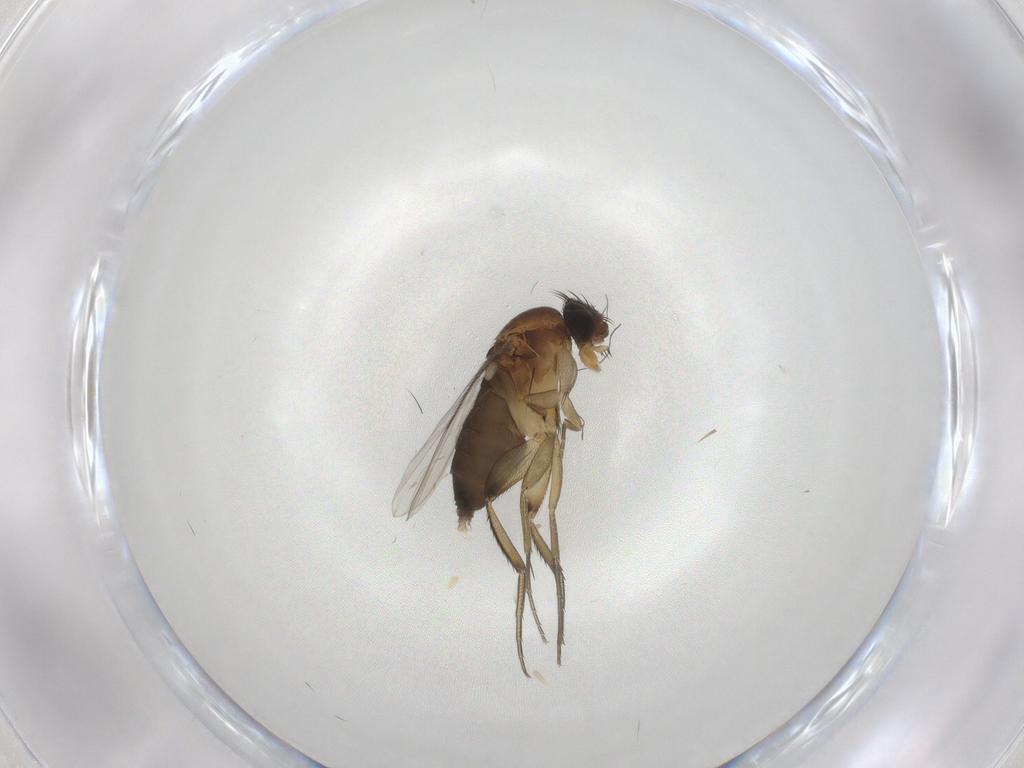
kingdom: Animalia
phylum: Arthropoda
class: Insecta
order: Diptera
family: Phoridae
